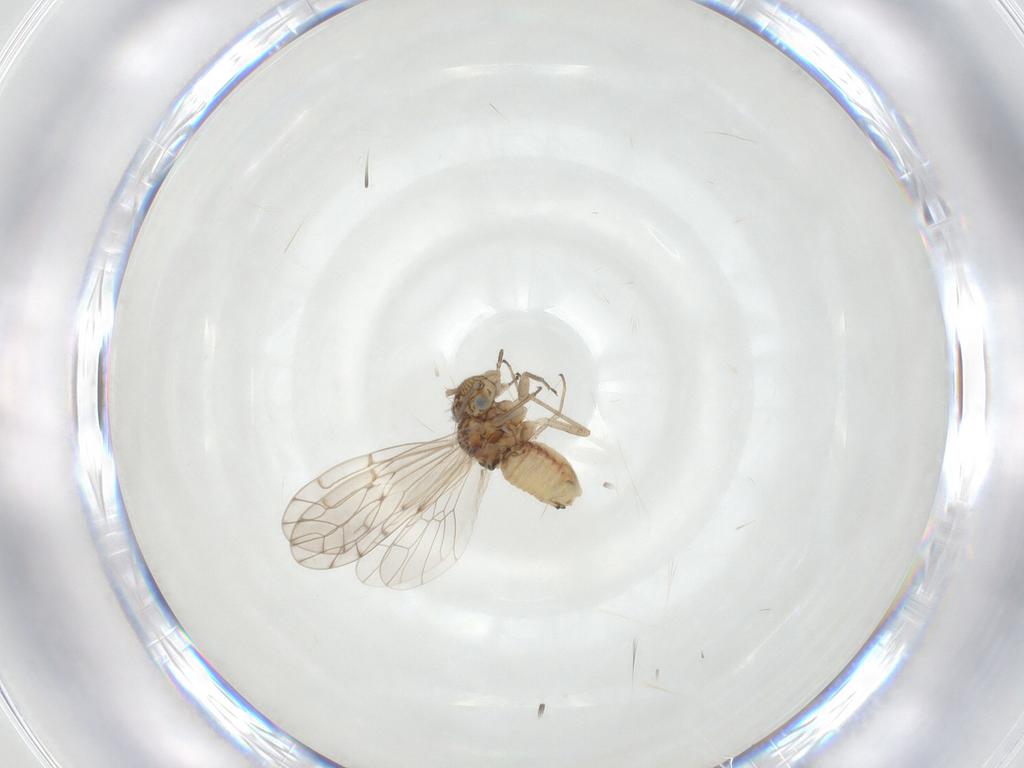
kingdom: Animalia
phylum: Arthropoda
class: Insecta
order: Psocodea
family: Ectopsocidae
